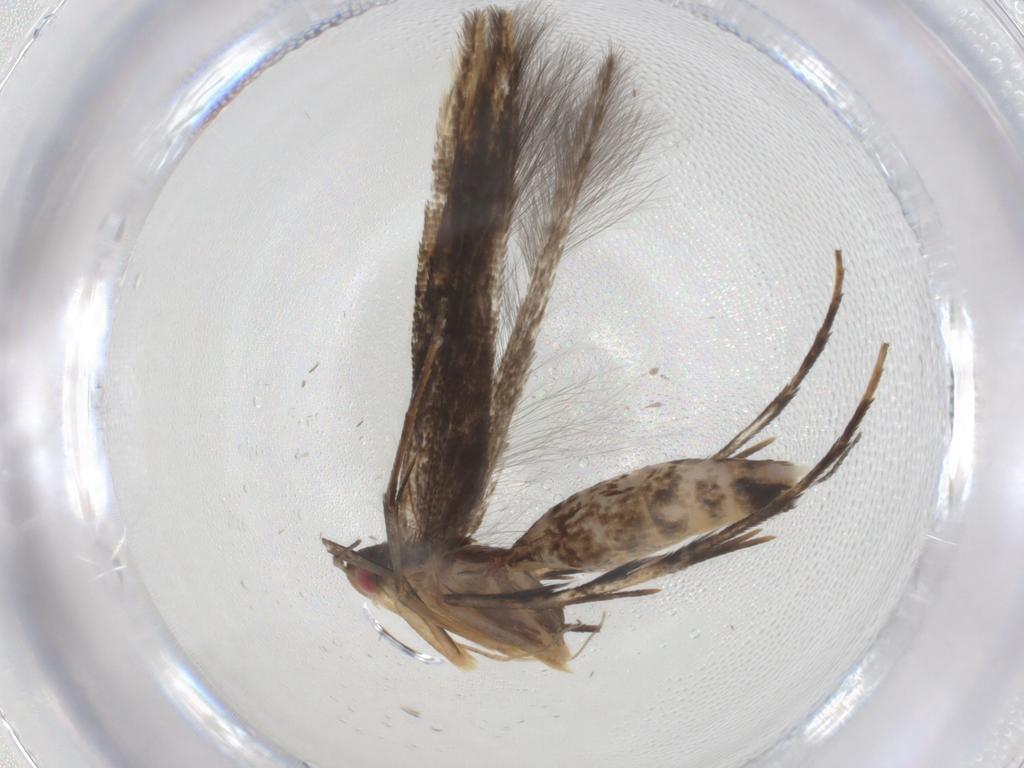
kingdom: Animalia
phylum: Arthropoda
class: Insecta
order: Lepidoptera
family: Cosmopterigidae
